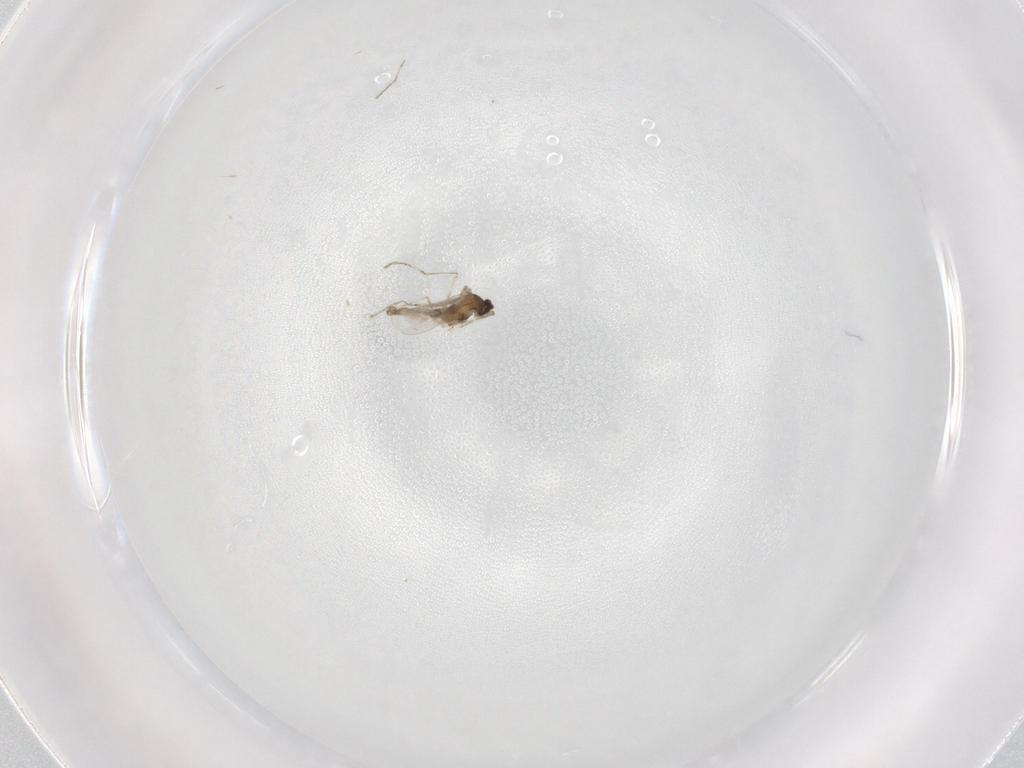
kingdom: Animalia
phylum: Arthropoda
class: Insecta
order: Diptera
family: Cecidomyiidae
